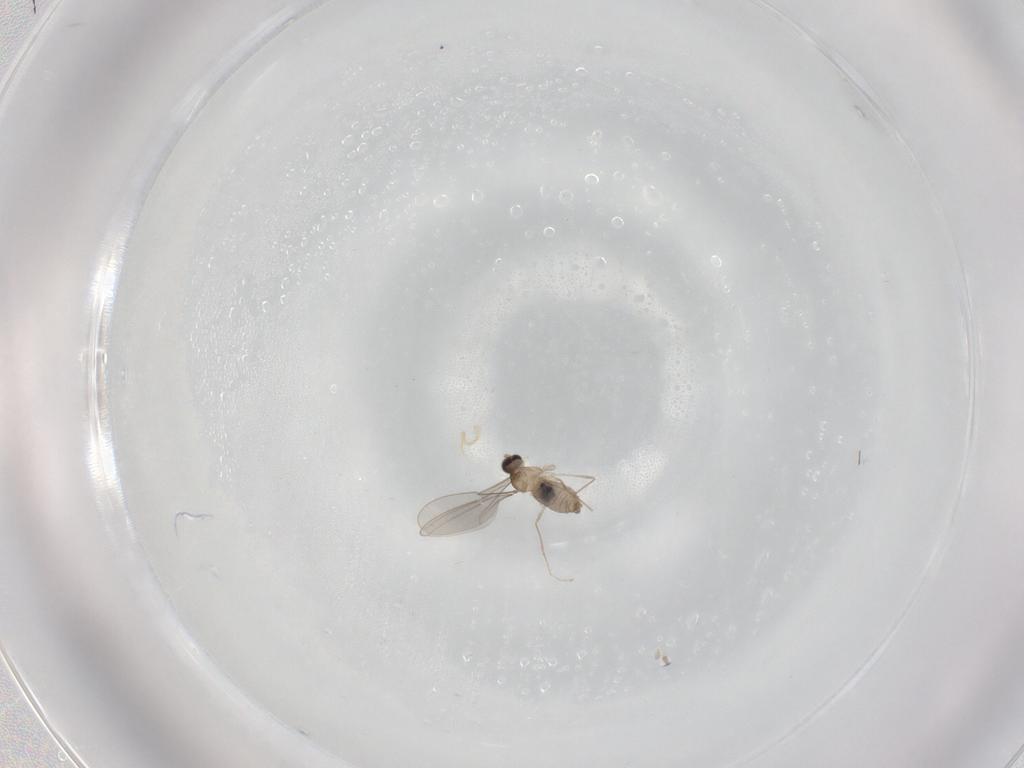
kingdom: Animalia
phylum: Arthropoda
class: Insecta
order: Diptera
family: Cecidomyiidae
